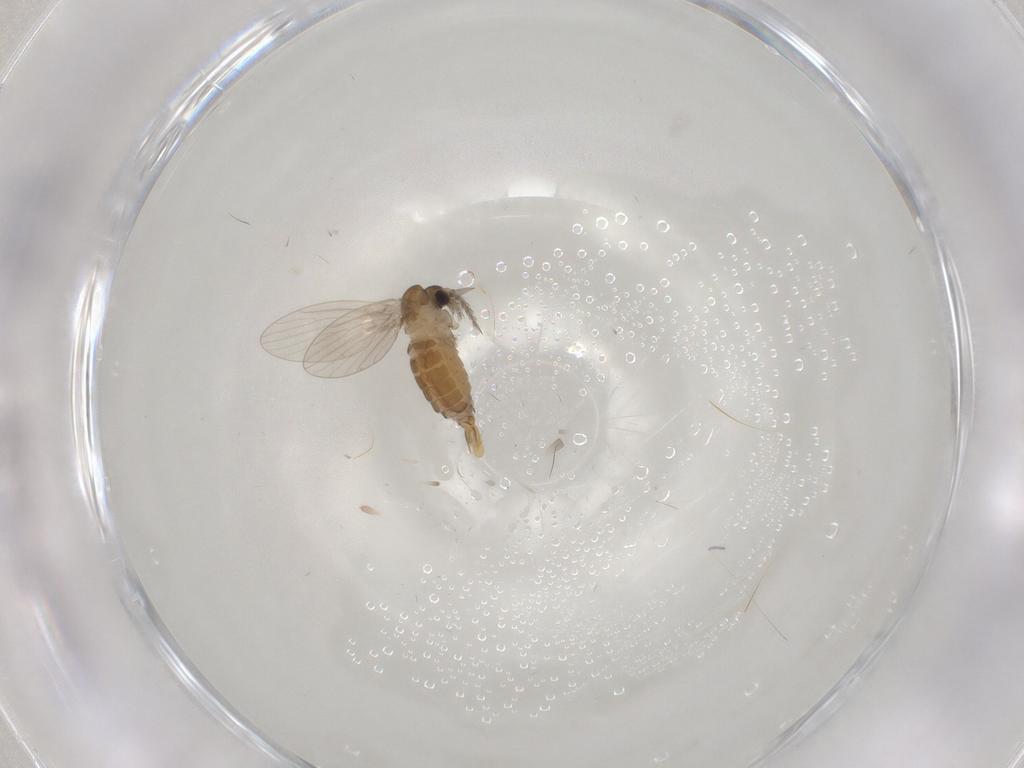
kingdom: Animalia
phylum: Arthropoda
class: Insecta
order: Diptera
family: Psychodidae
